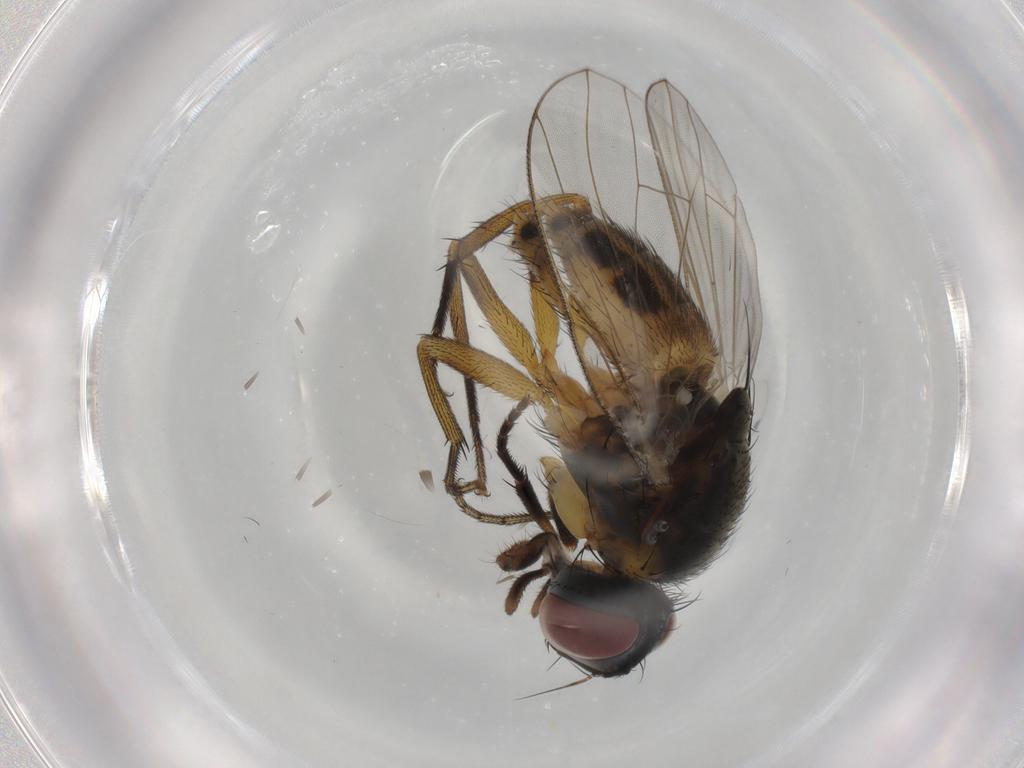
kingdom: Animalia
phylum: Arthropoda
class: Insecta
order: Diptera
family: Muscidae
